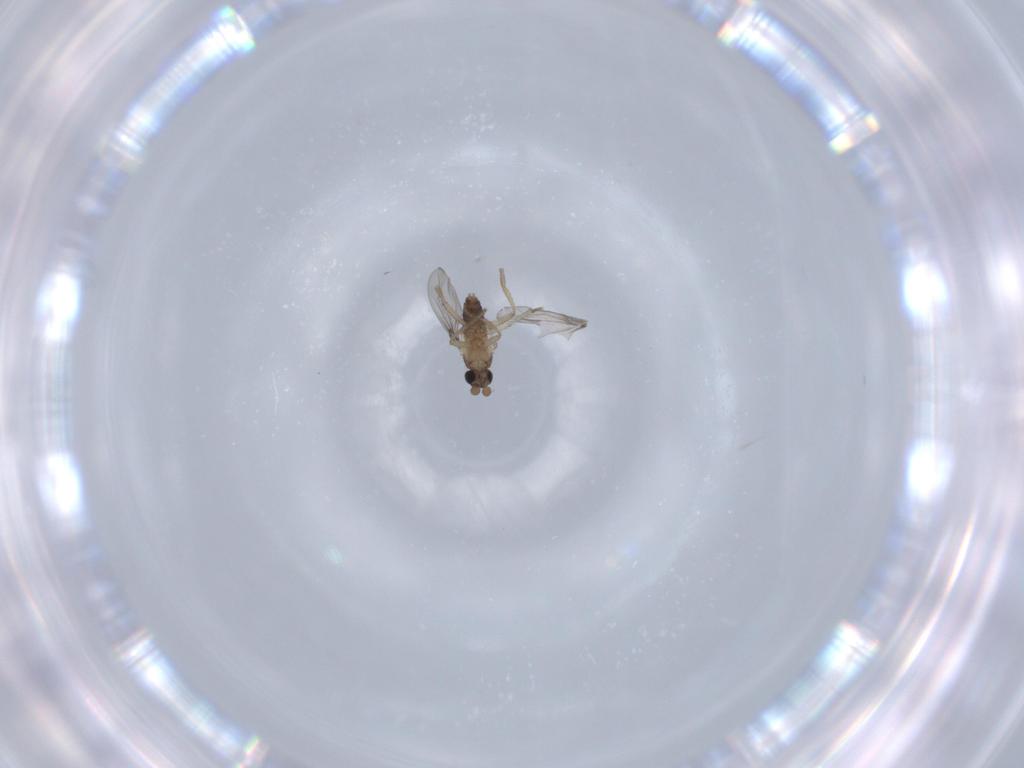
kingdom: Animalia
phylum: Arthropoda
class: Insecta
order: Diptera
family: Phoridae
